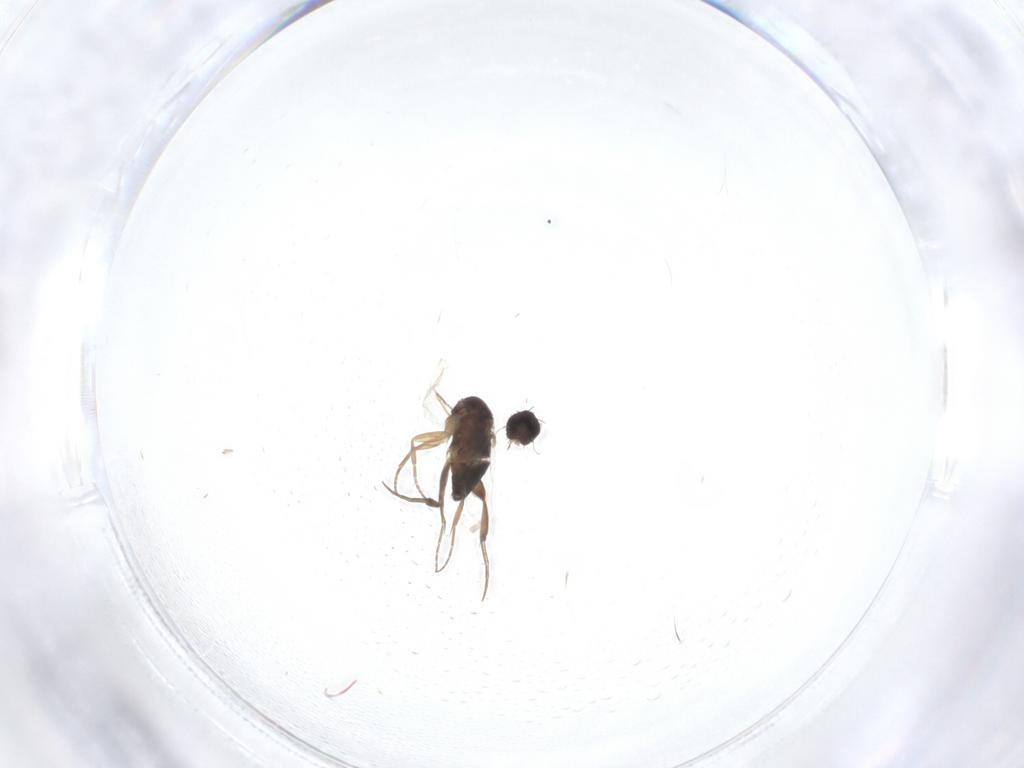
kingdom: Animalia
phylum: Arthropoda
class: Insecta
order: Diptera
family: Phoridae
